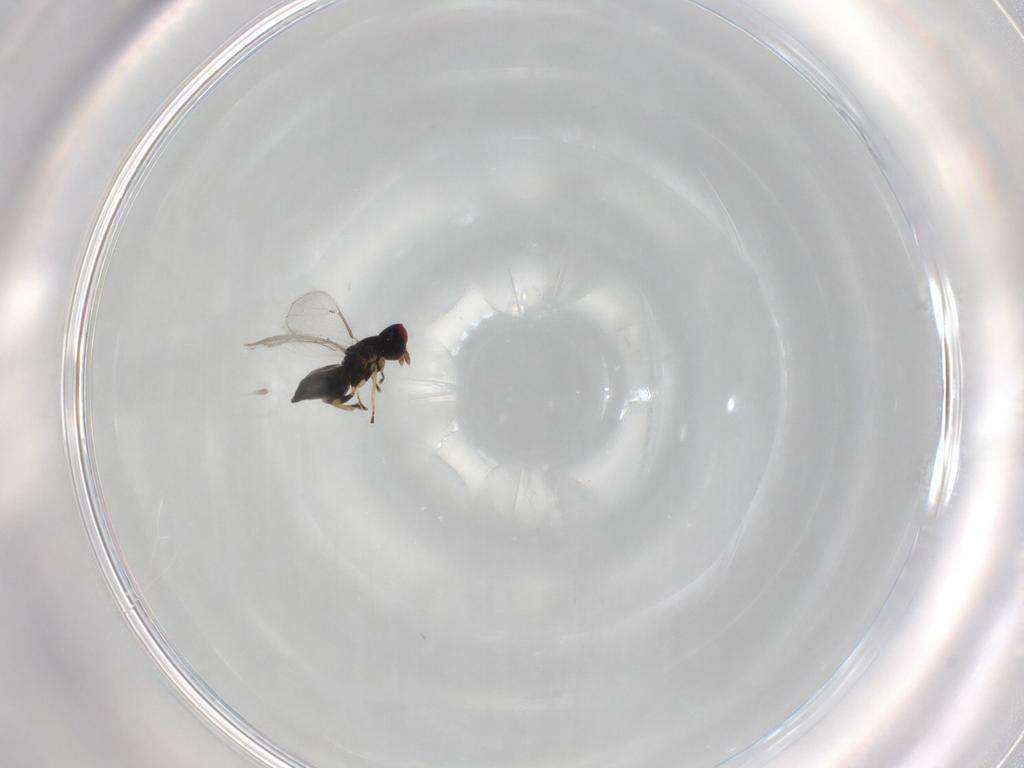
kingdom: Animalia
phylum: Arthropoda
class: Insecta
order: Hymenoptera
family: Eulophidae
